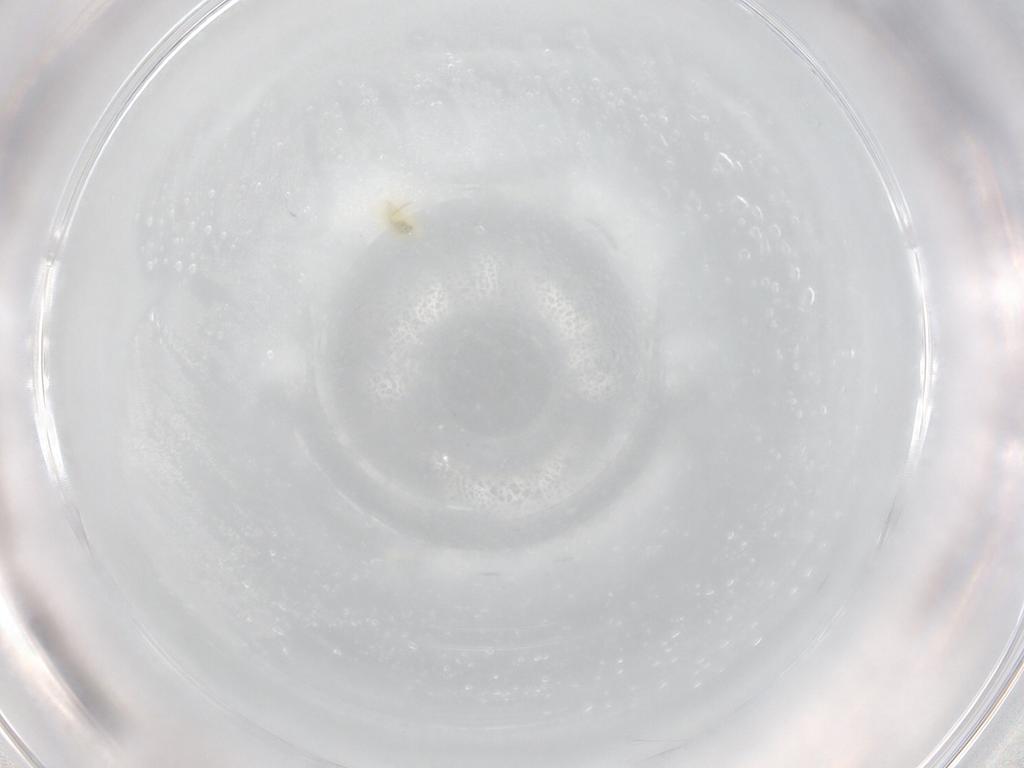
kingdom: Animalia
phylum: Arthropoda
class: Arachnida
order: Trombidiformes
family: Eupodidae
